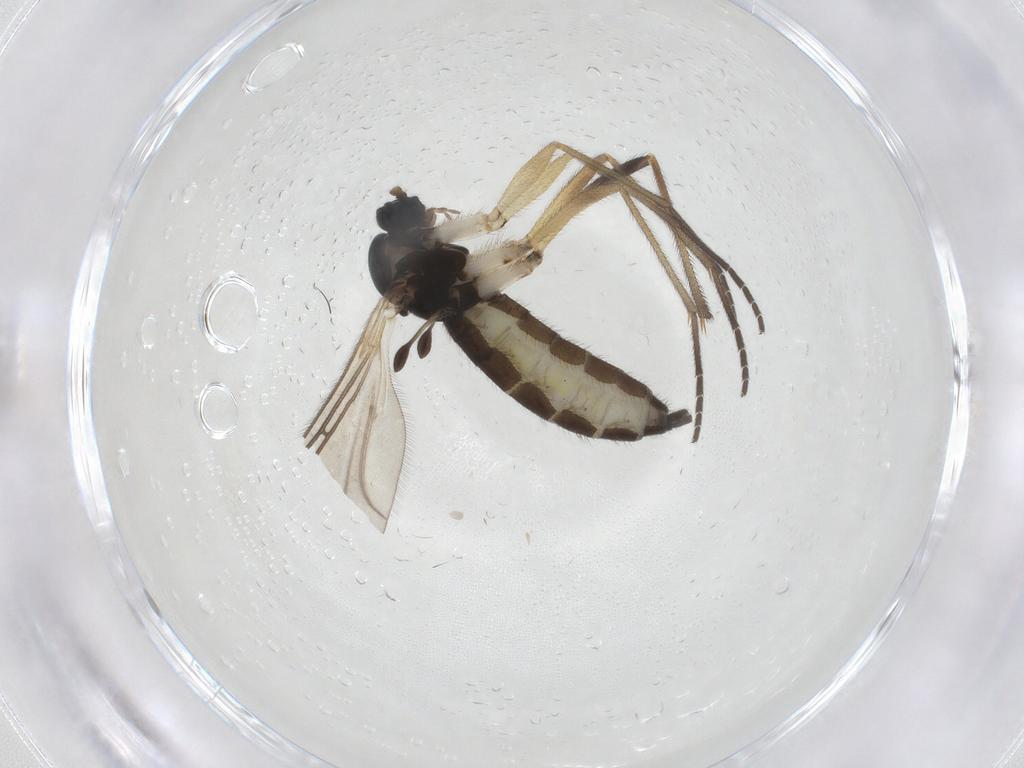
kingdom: Animalia
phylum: Arthropoda
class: Insecta
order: Diptera
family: Sciaridae
